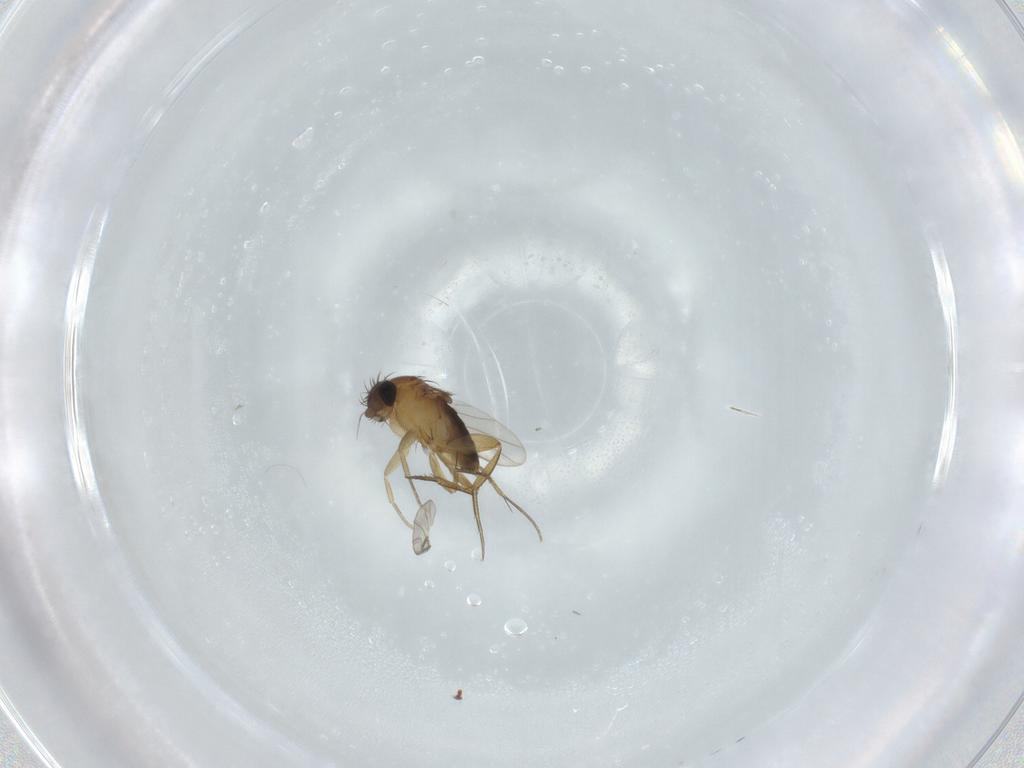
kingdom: Animalia
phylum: Arthropoda
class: Insecta
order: Diptera
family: Phoridae
